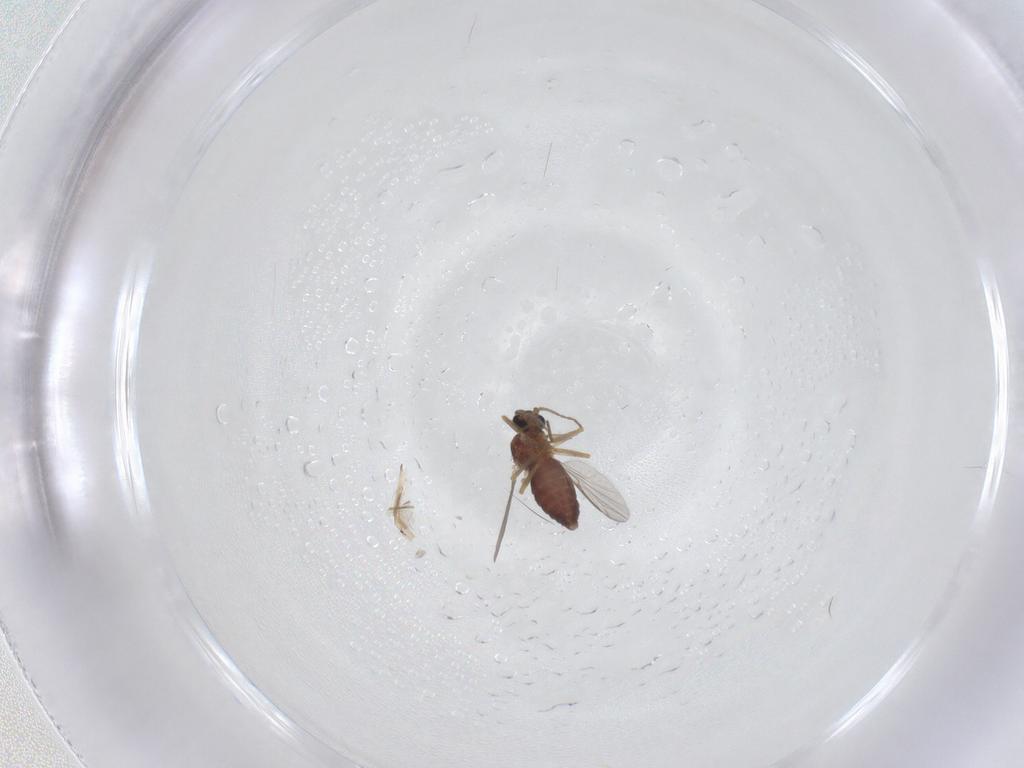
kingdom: Animalia
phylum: Arthropoda
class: Insecta
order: Diptera
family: Ceratopogonidae
